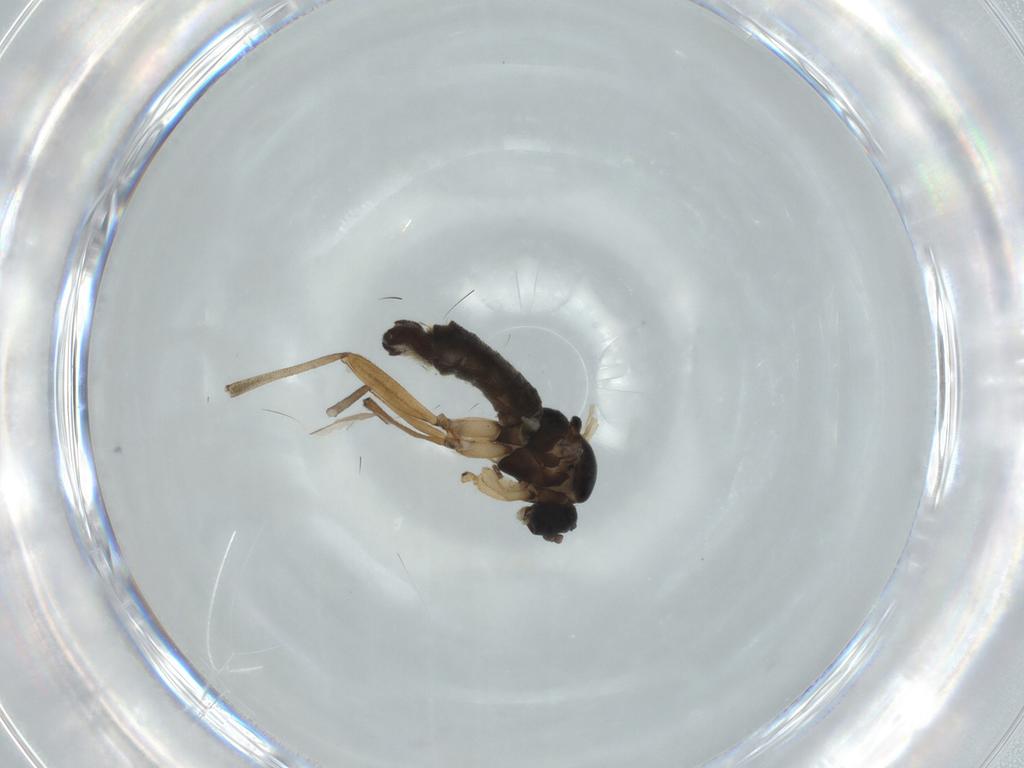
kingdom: Animalia
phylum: Arthropoda
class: Insecta
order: Diptera
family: Sciaridae
